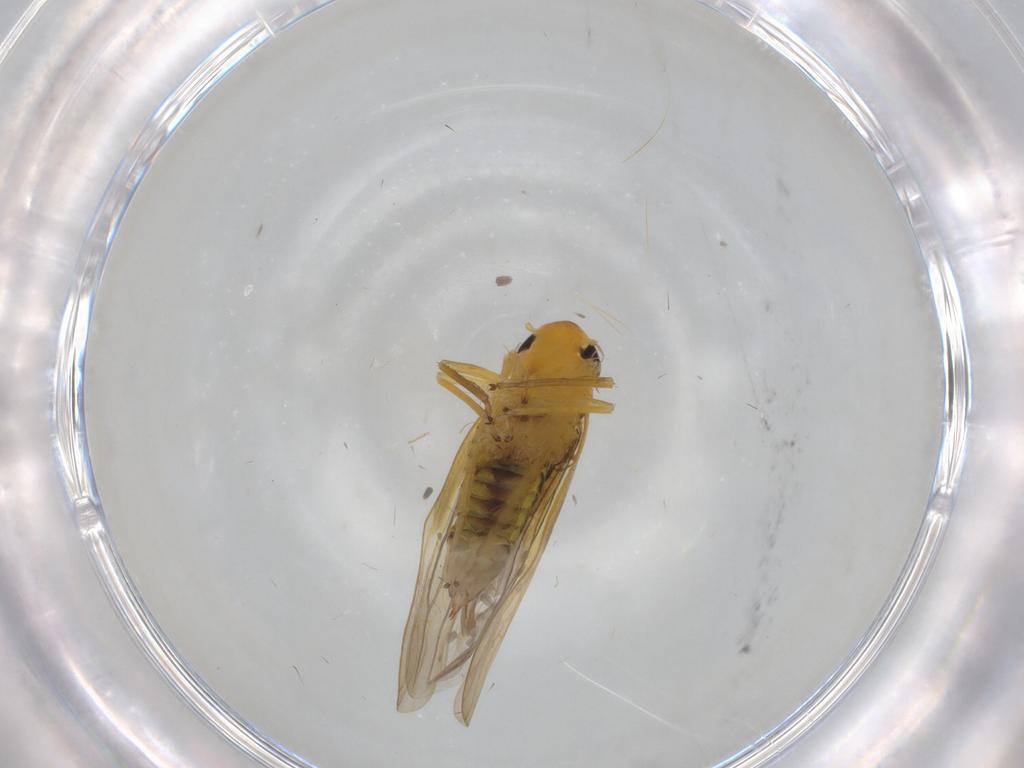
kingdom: Animalia
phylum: Arthropoda
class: Insecta
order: Hemiptera
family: Cicadellidae
